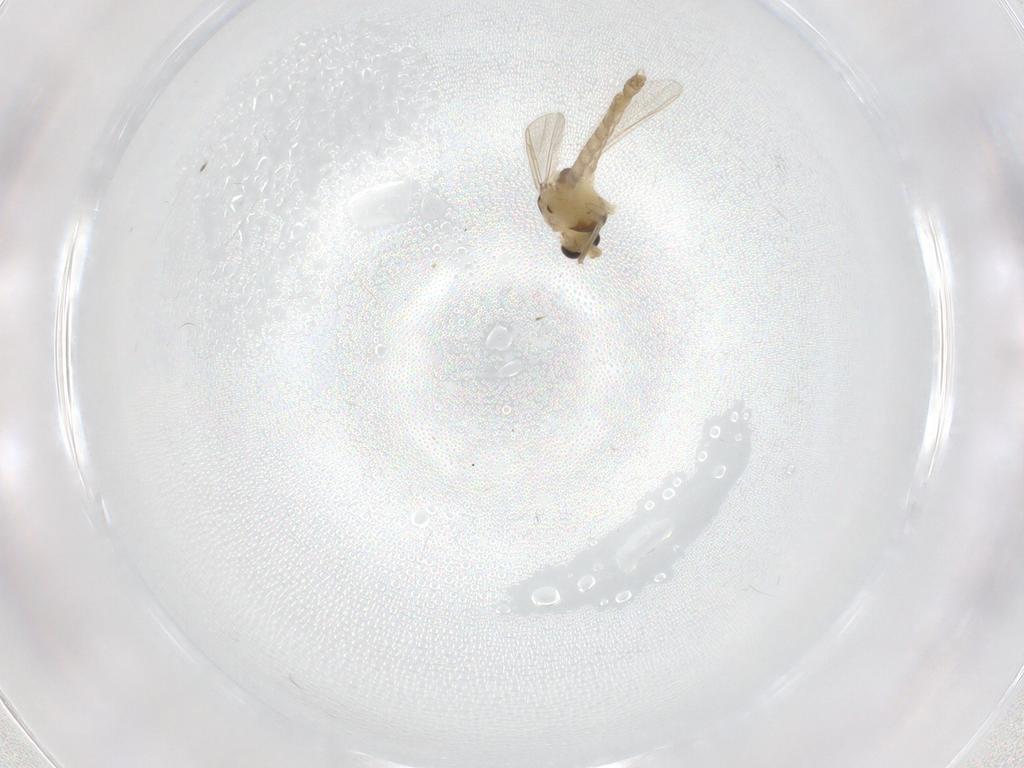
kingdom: Animalia
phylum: Arthropoda
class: Insecta
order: Diptera
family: Chironomidae
